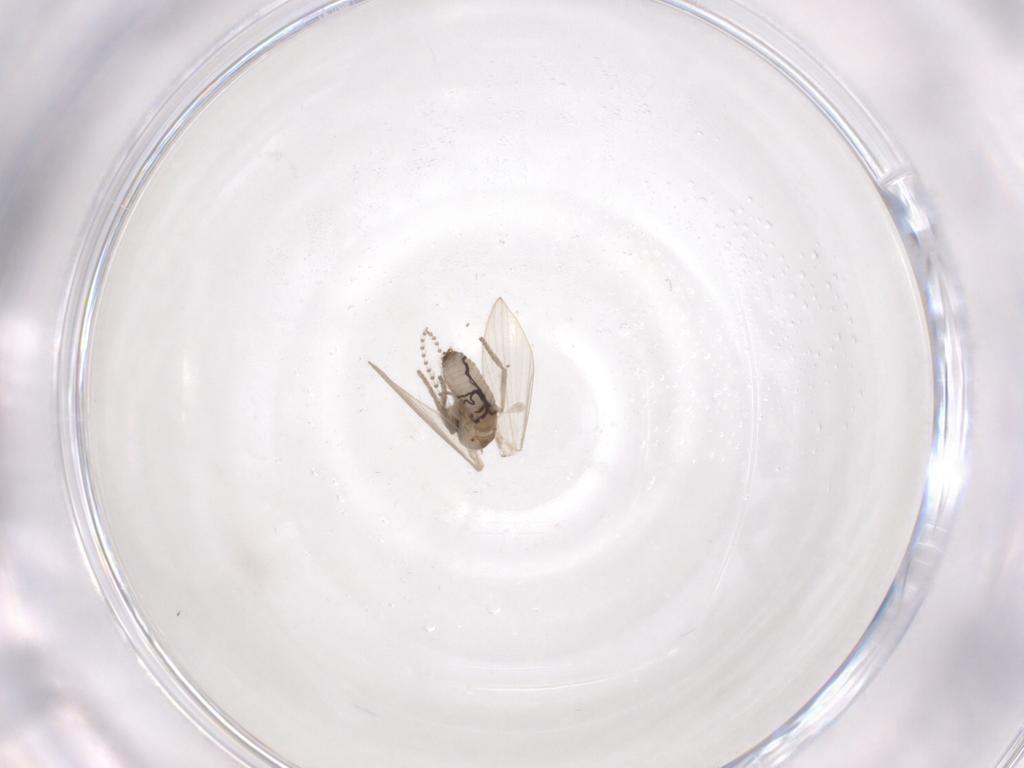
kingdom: Animalia
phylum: Arthropoda
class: Insecta
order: Diptera
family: Psychodidae
